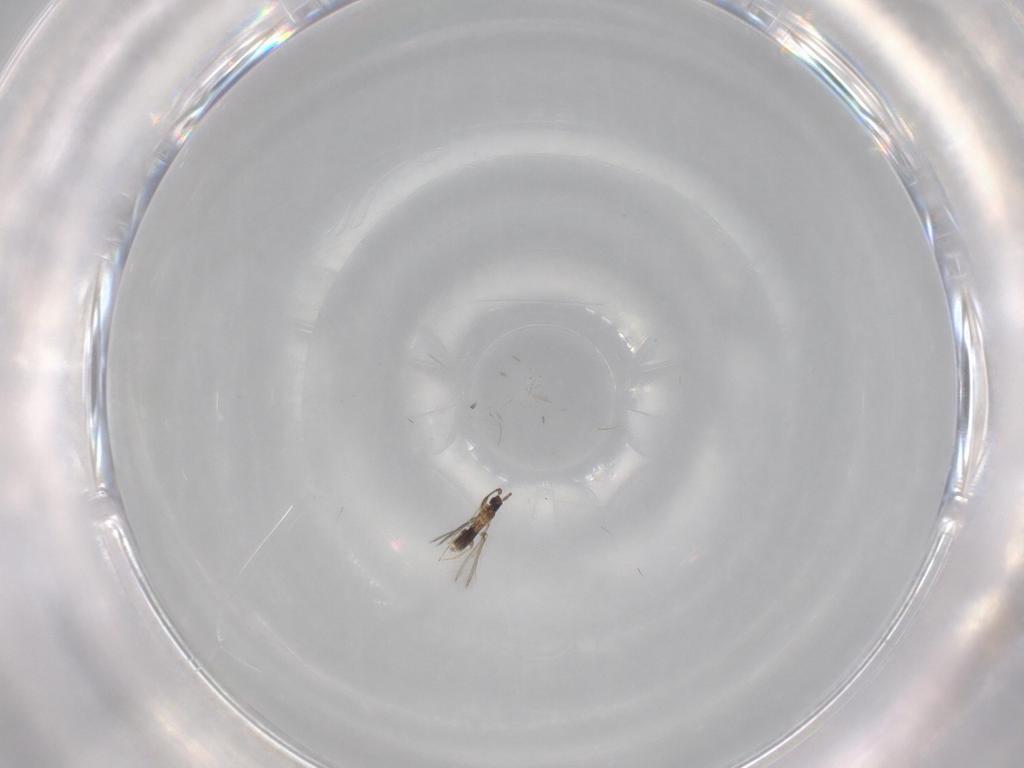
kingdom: Animalia
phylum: Arthropoda
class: Insecta
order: Hymenoptera
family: Mymaridae
